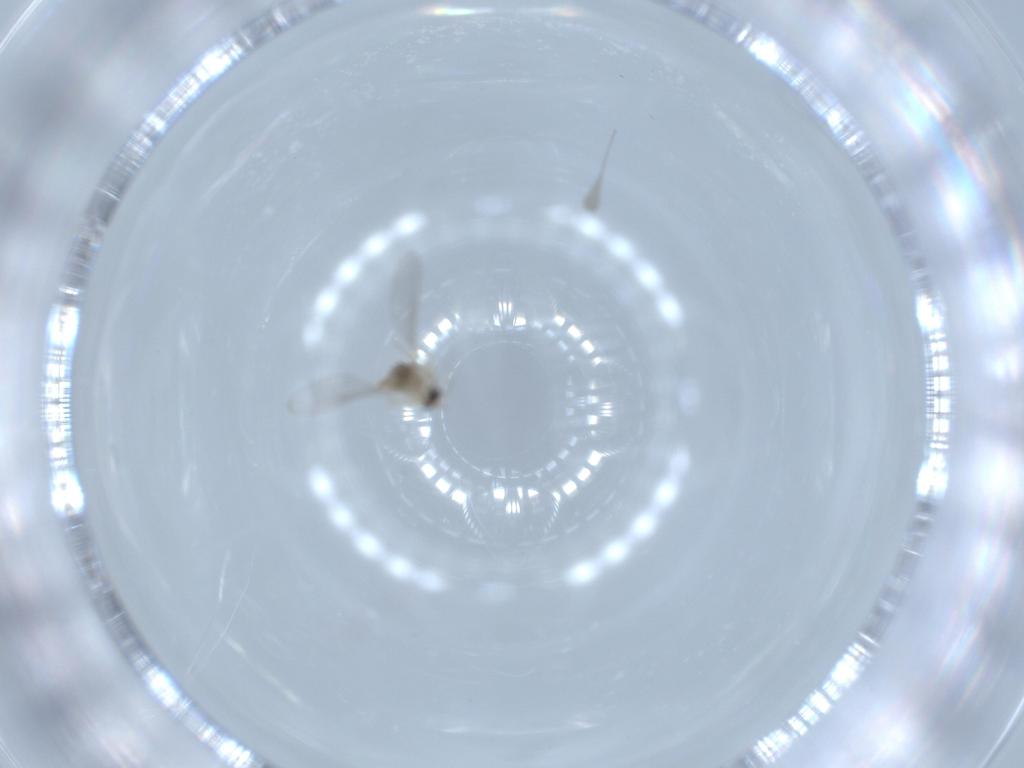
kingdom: Animalia
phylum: Arthropoda
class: Insecta
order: Diptera
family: Cecidomyiidae
